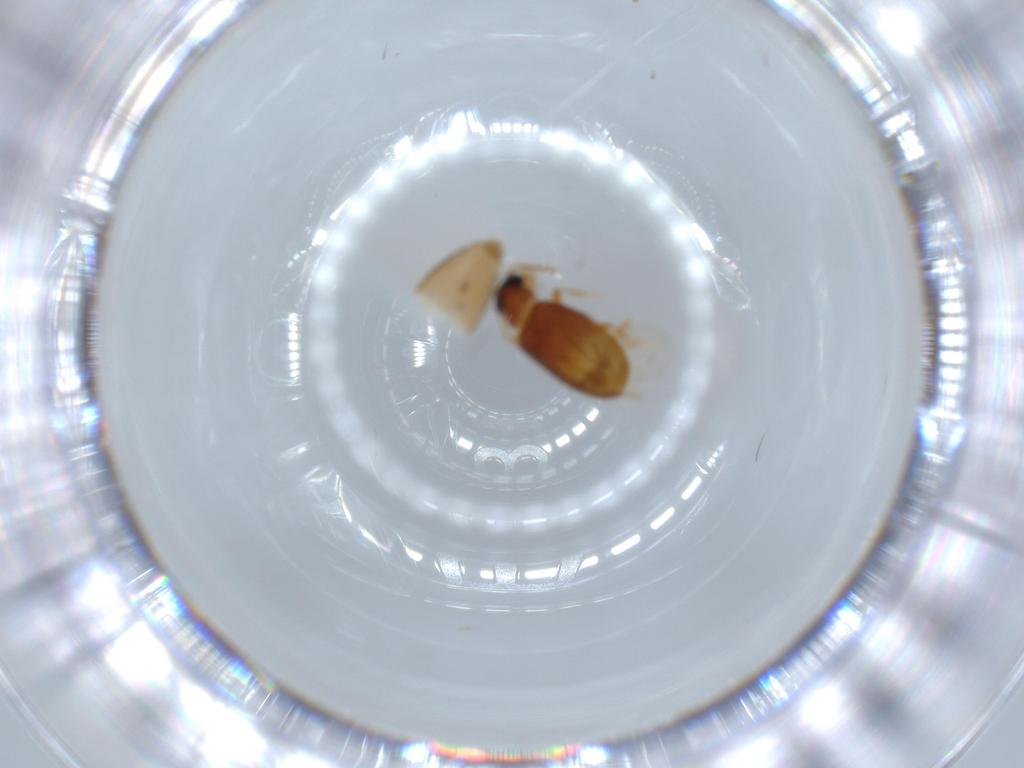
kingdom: Animalia
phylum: Arthropoda
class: Insecta
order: Coleoptera
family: Aderidae
